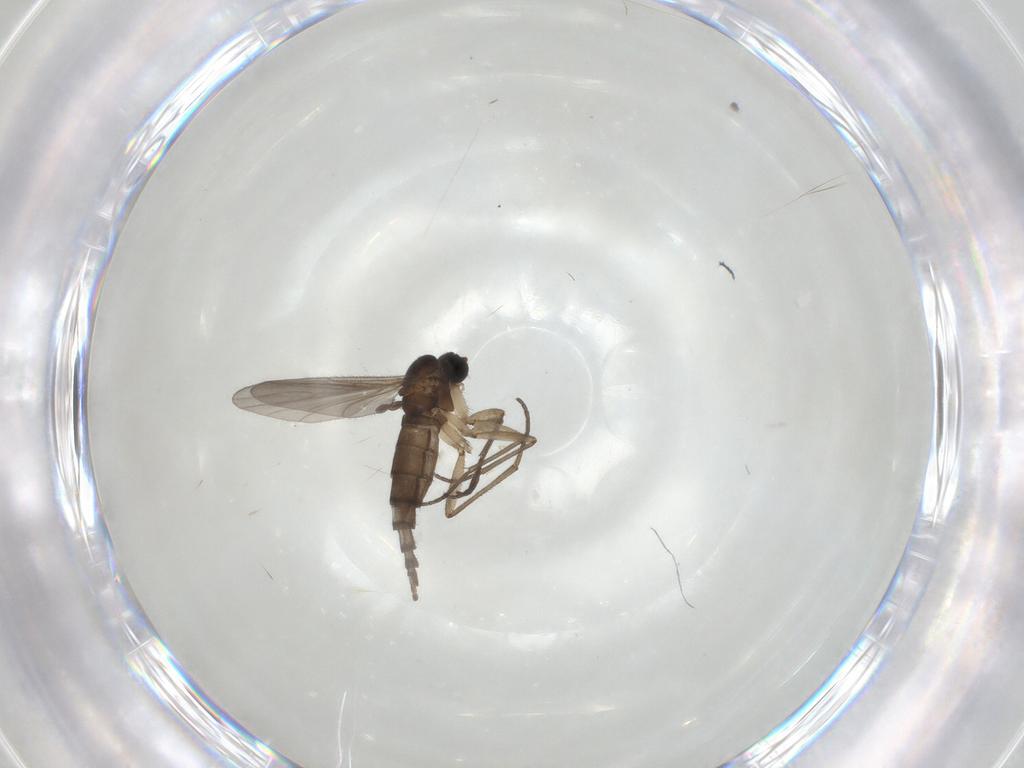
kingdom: Animalia
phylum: Arthropoda
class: Insecta
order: Diptera
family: Sciaridae
